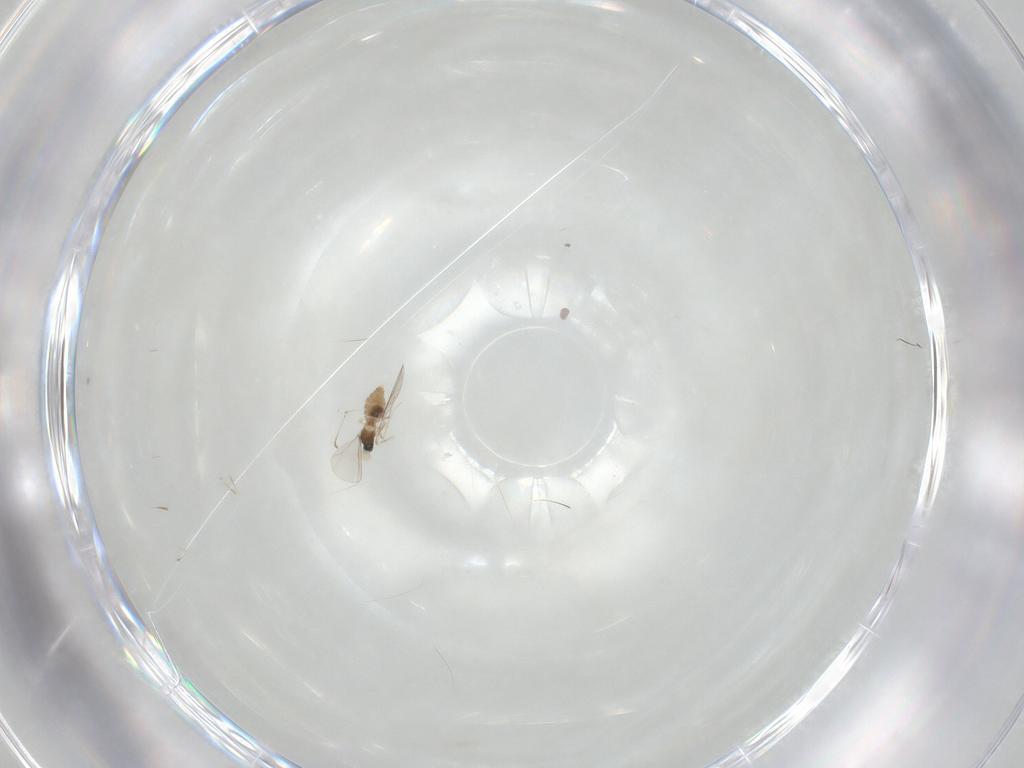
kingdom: Animalia
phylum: Arthropoda
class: Insecta
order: Diptera
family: Cecidomyiidae
